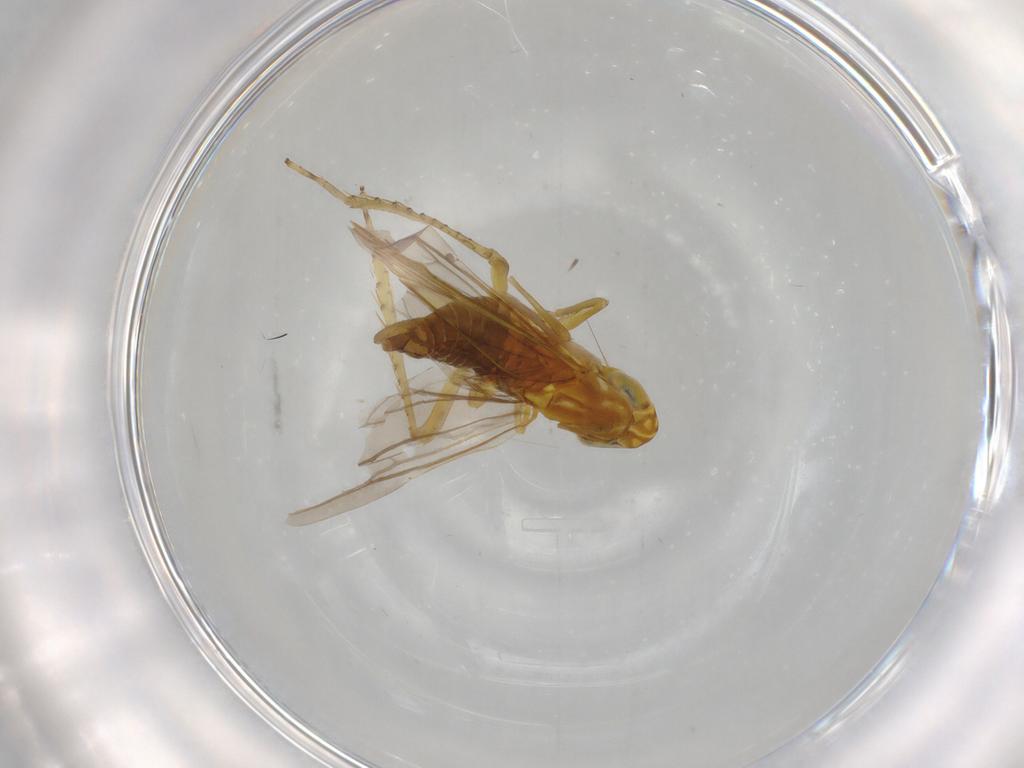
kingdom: Animalia
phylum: Arthropoda
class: Insecta
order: Hemiptera
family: Cicadellidae
